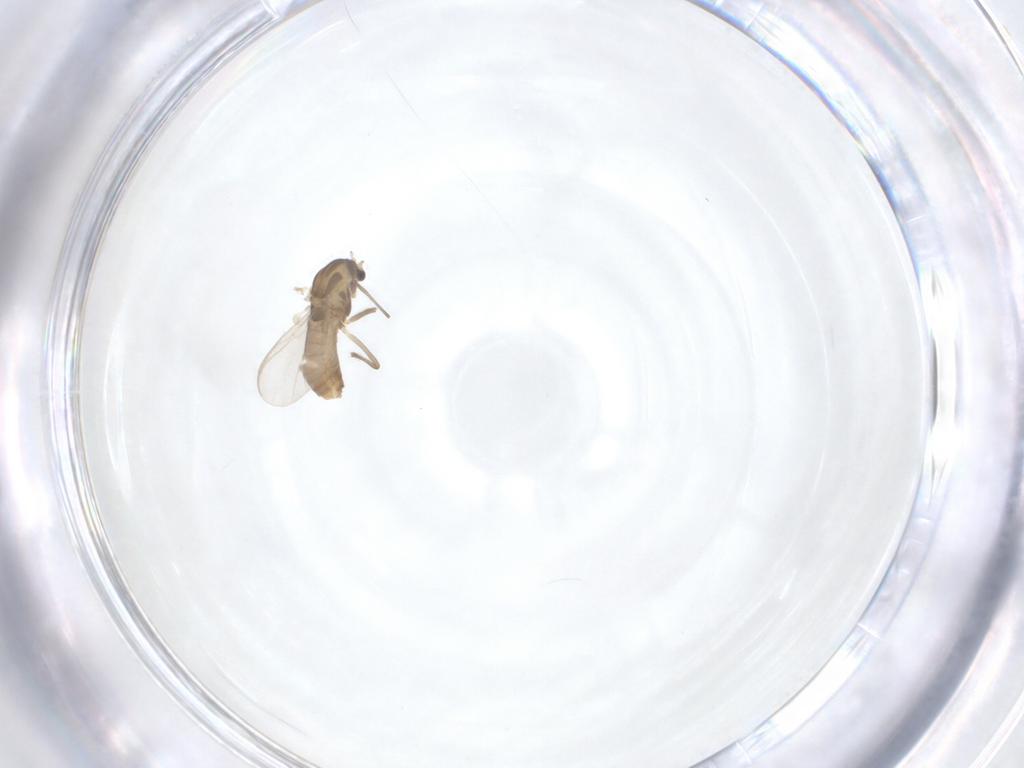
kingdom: Animalia
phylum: Arthropoda
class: Insecta
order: Diptera
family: Chironomidae
